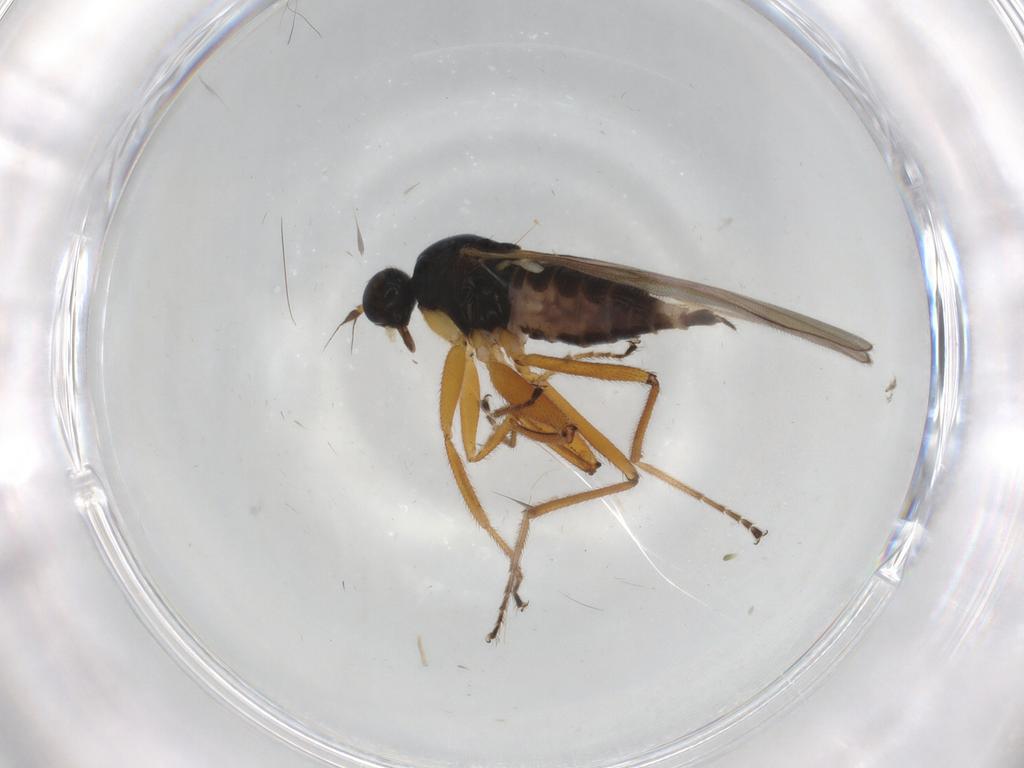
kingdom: Animalia
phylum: Arthropoda
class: Insecta
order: Diptera
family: Hybotidae
